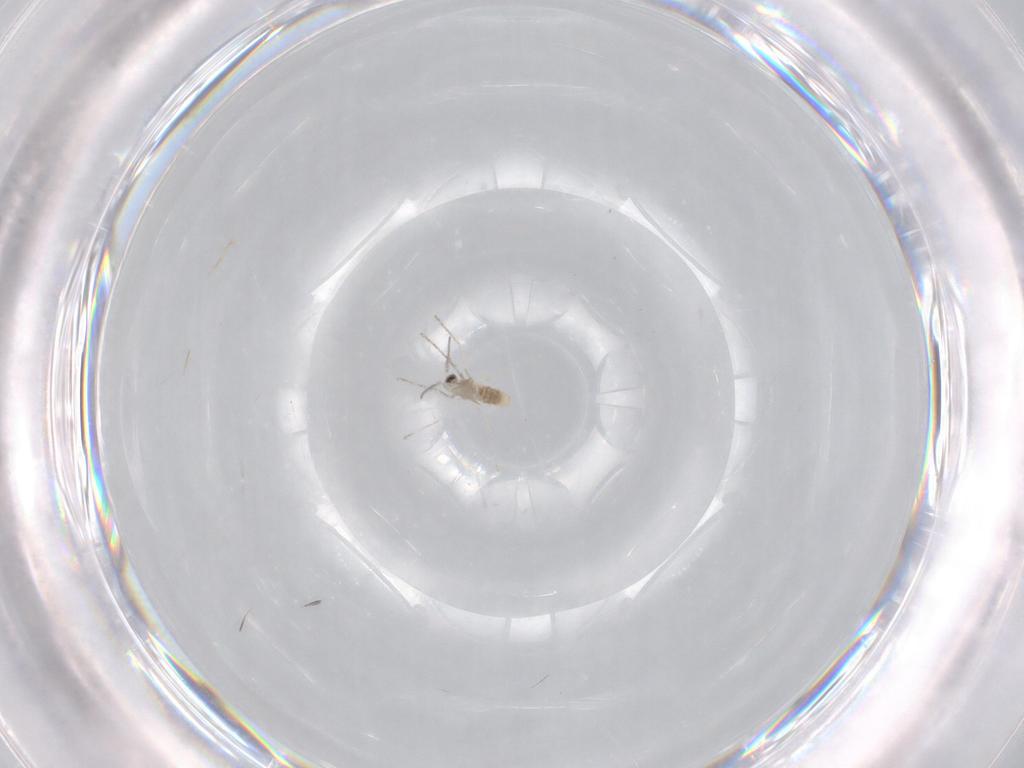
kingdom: Animalia
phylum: Arthropoda
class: Insecta
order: Diptera
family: Cecidomyiidae
